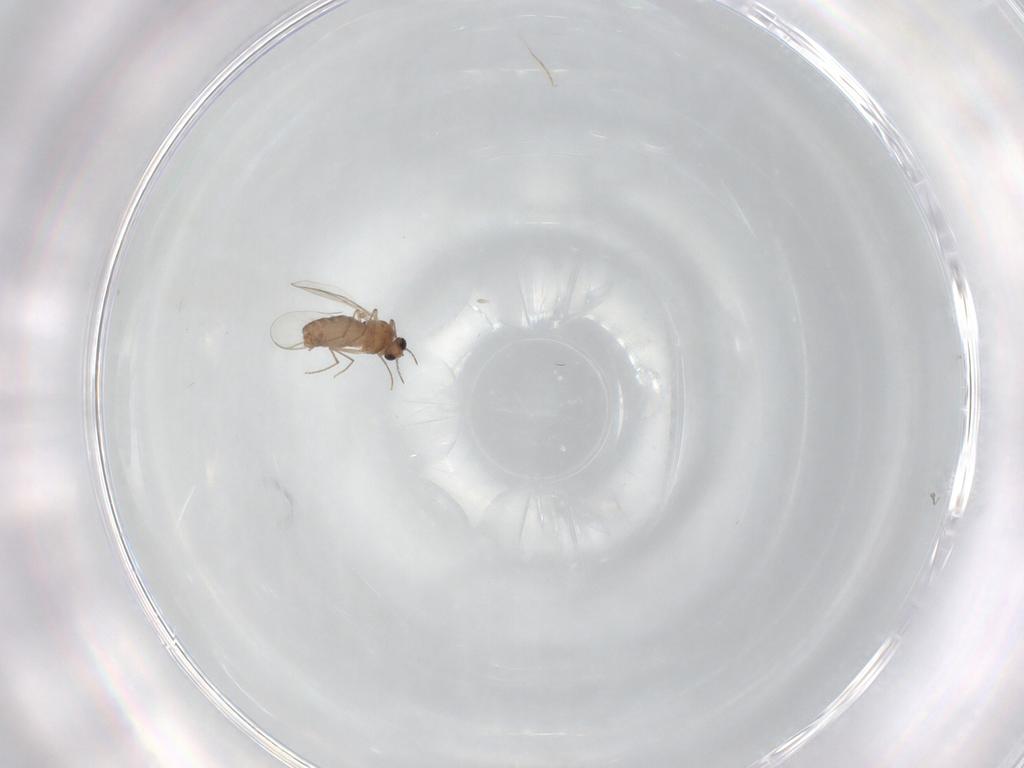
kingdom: Animalia
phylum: Arthropoda
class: Insecta
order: Diptera
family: Chironomidae
